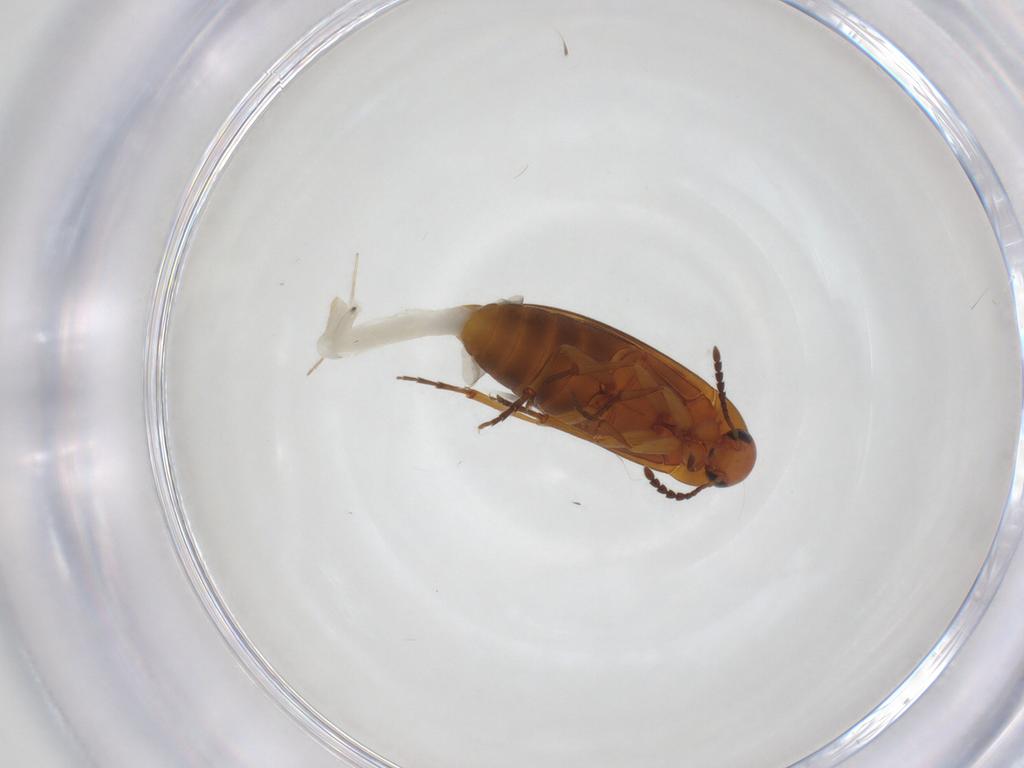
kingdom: Animalia
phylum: Arthropoda
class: Insecta
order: Coleoptera
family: Scraptiidae
